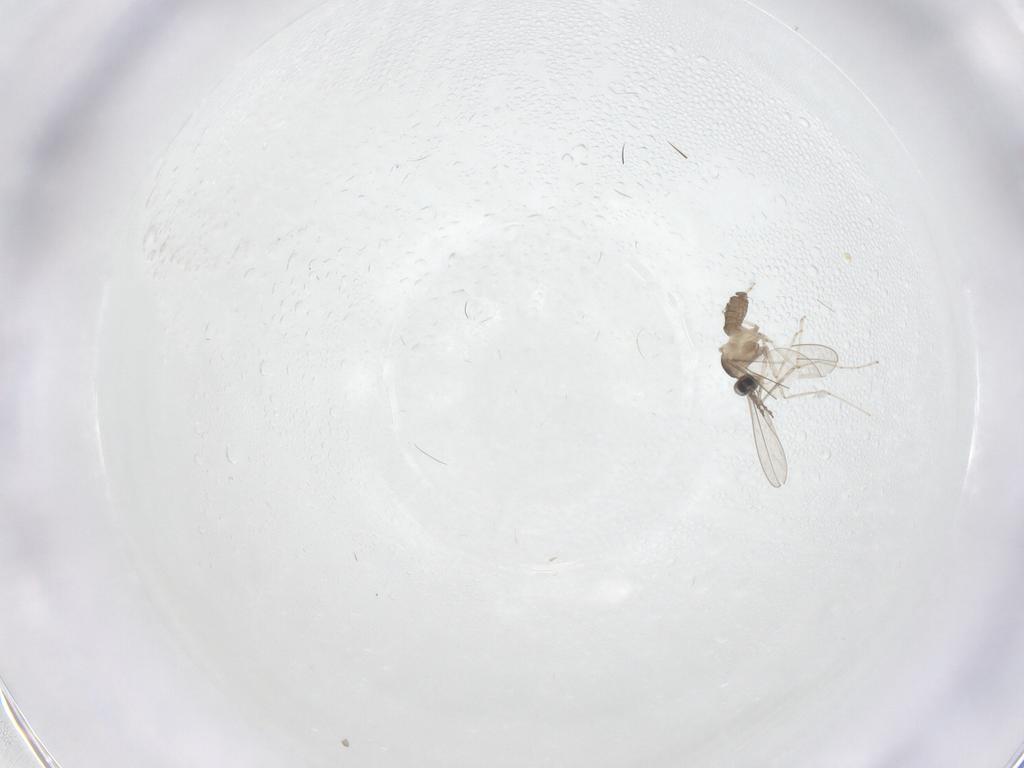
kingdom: Animalia
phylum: Arthropoda
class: Insecta
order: Diptera
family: Cecidomyiidae
